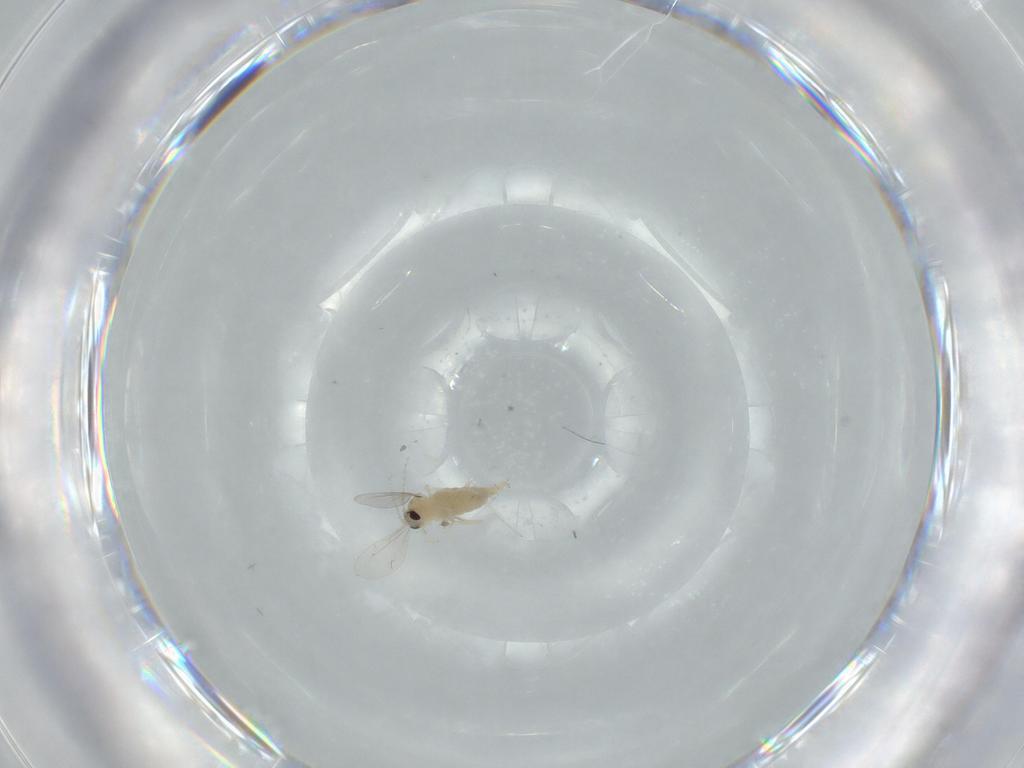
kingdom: Animalia
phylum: Arthropoda
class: Insecta
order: Diptera
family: Cecidomyiidae
